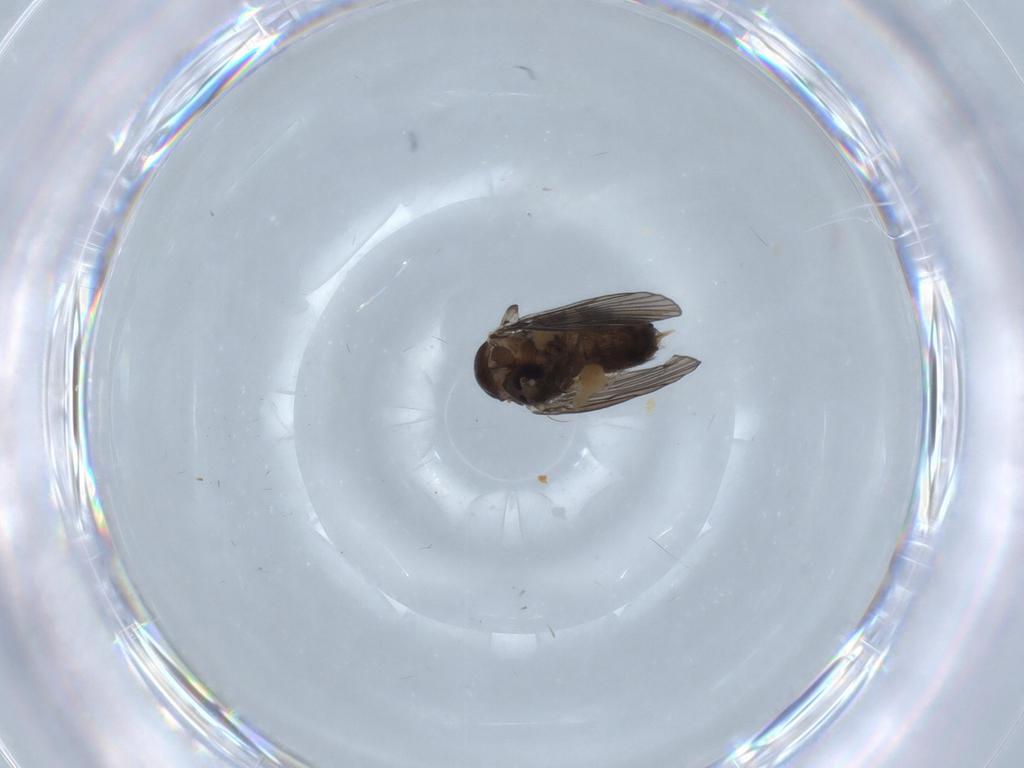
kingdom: Animalia
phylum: Arthropoda
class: Insecta
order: Diptera
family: Psychodidae
